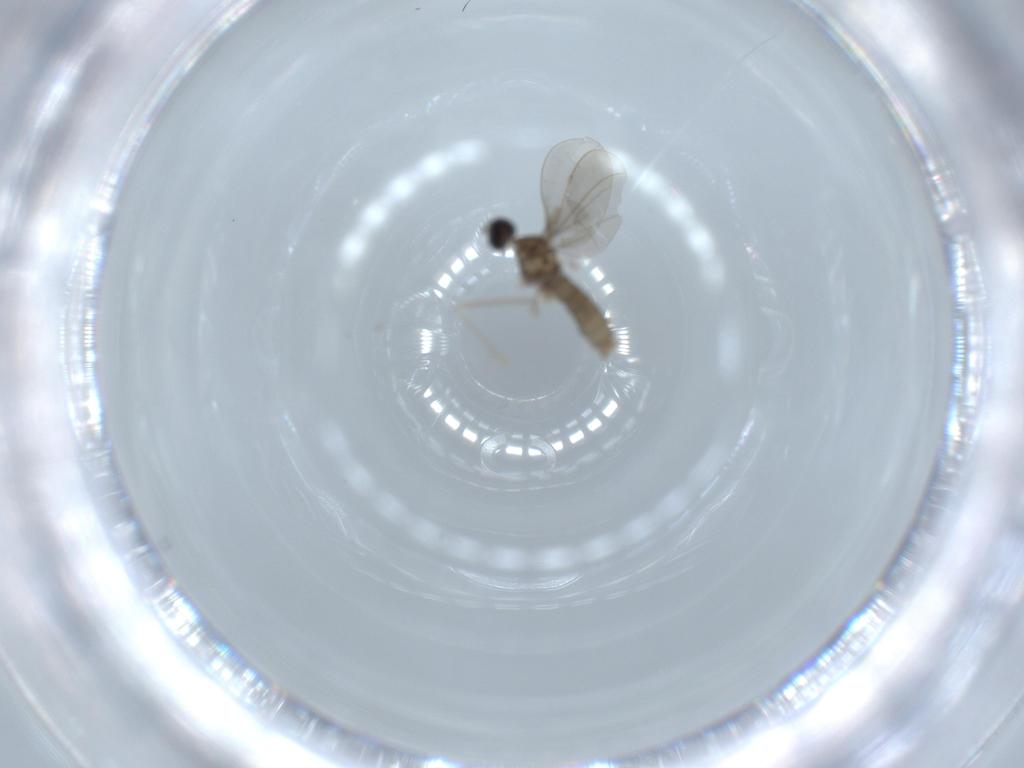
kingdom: Animalia
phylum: Arthropoda
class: Insecta
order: Diptera
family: Cecidomyiidae
